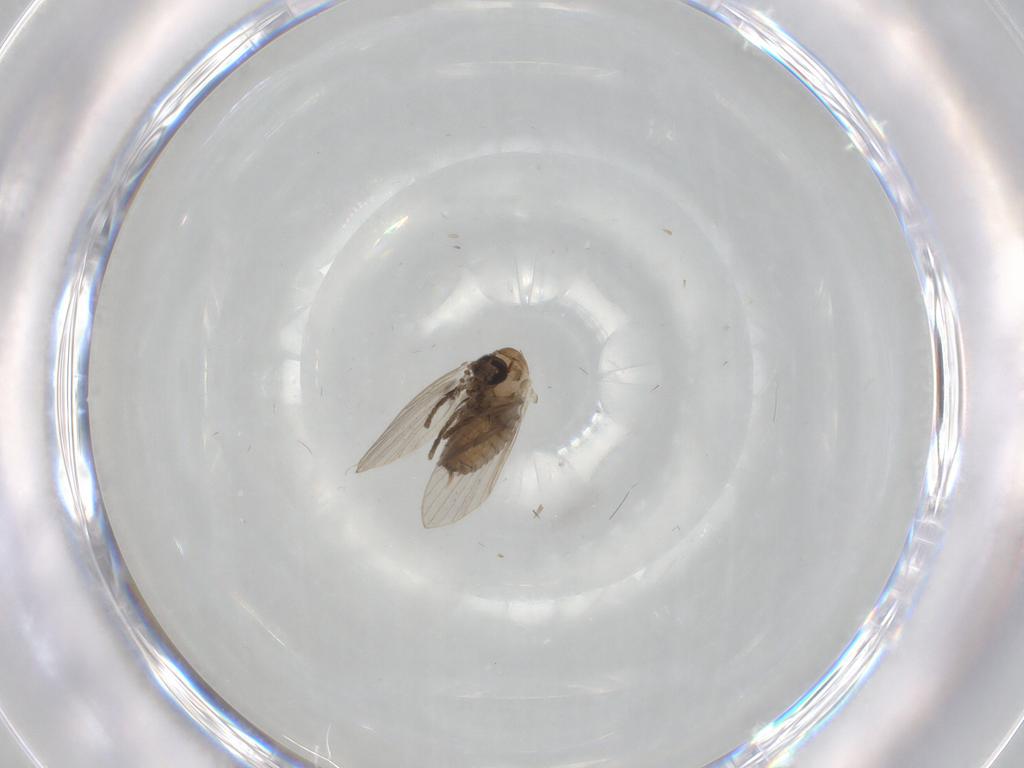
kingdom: Animalia
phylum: Arthropoda
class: Insecta
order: Diptera
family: Psychodidae
